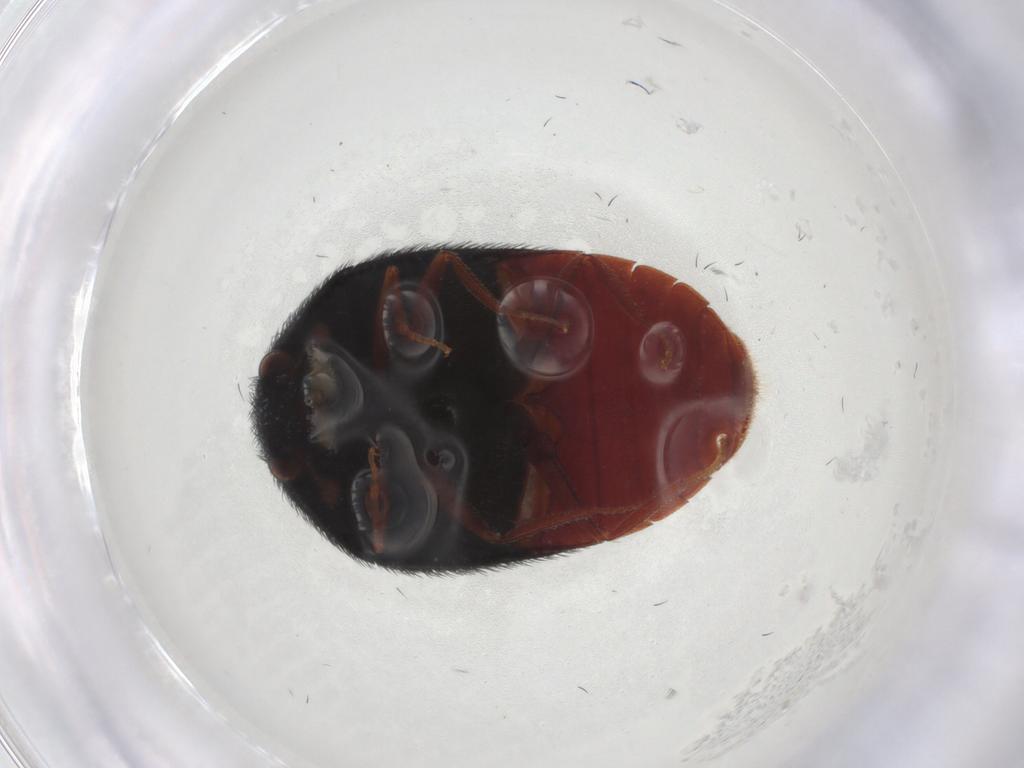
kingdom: Animalia
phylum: Arthropoda
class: Insecta
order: Coleoptera
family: Dermestidae
